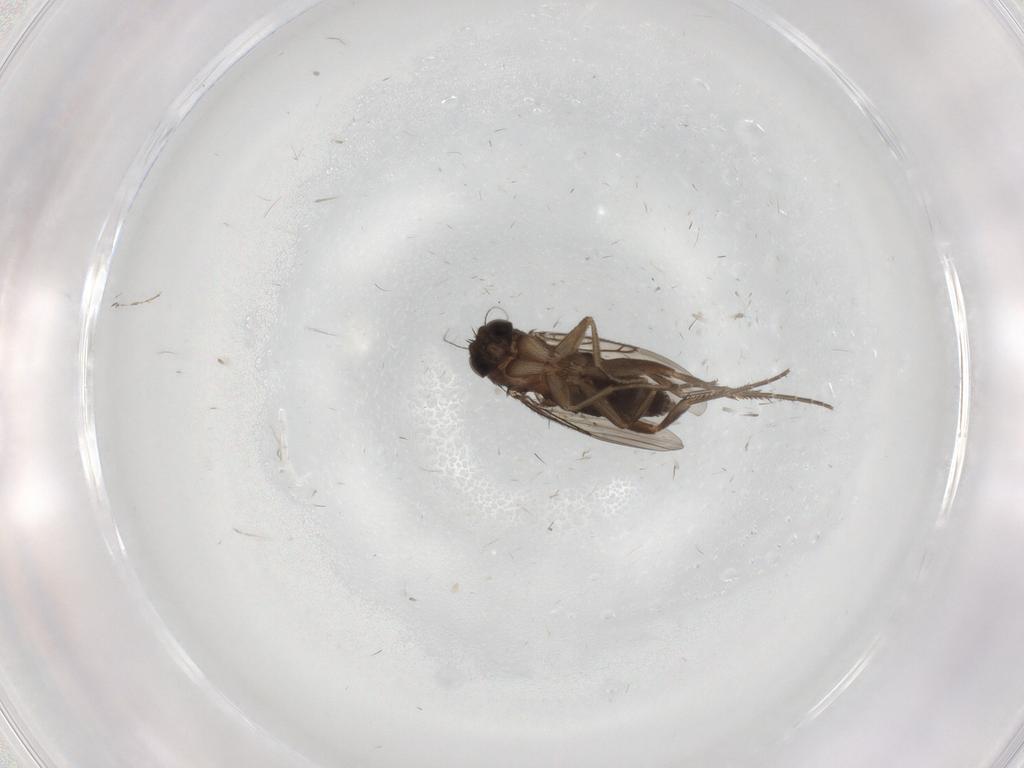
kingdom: Animalia
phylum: Arthropoda
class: Insecta
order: Diptera
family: Phoridae
